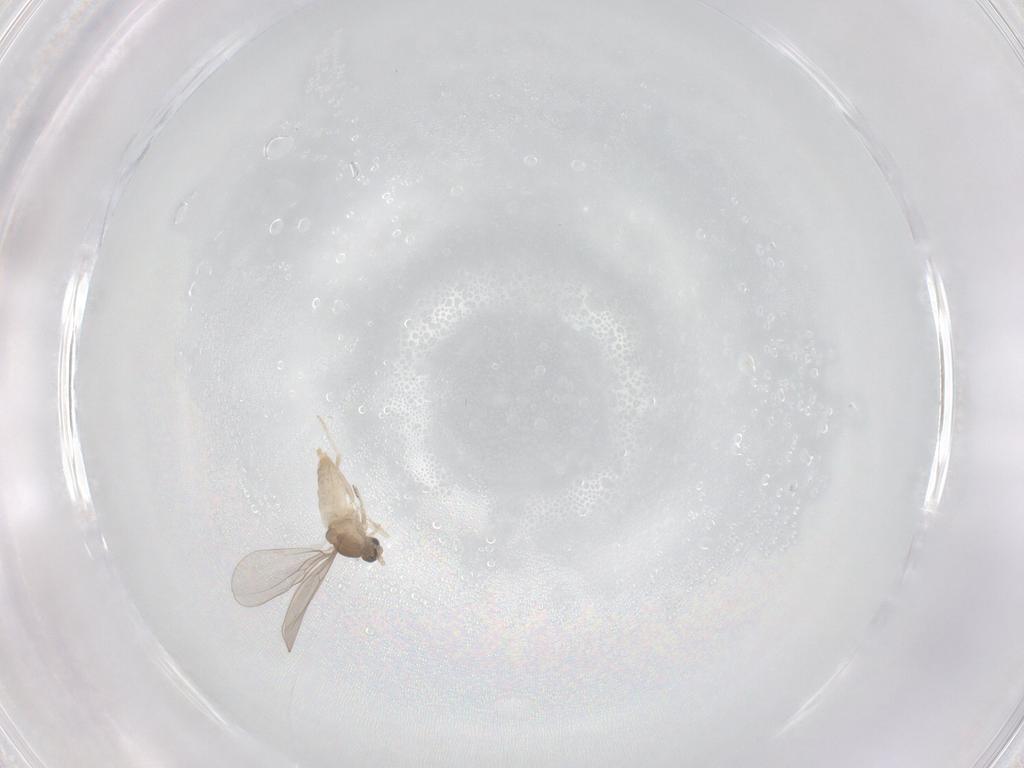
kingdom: Animalia
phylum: Arthropoda
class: Insecta
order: Diptera
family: Cecidomyiidae
